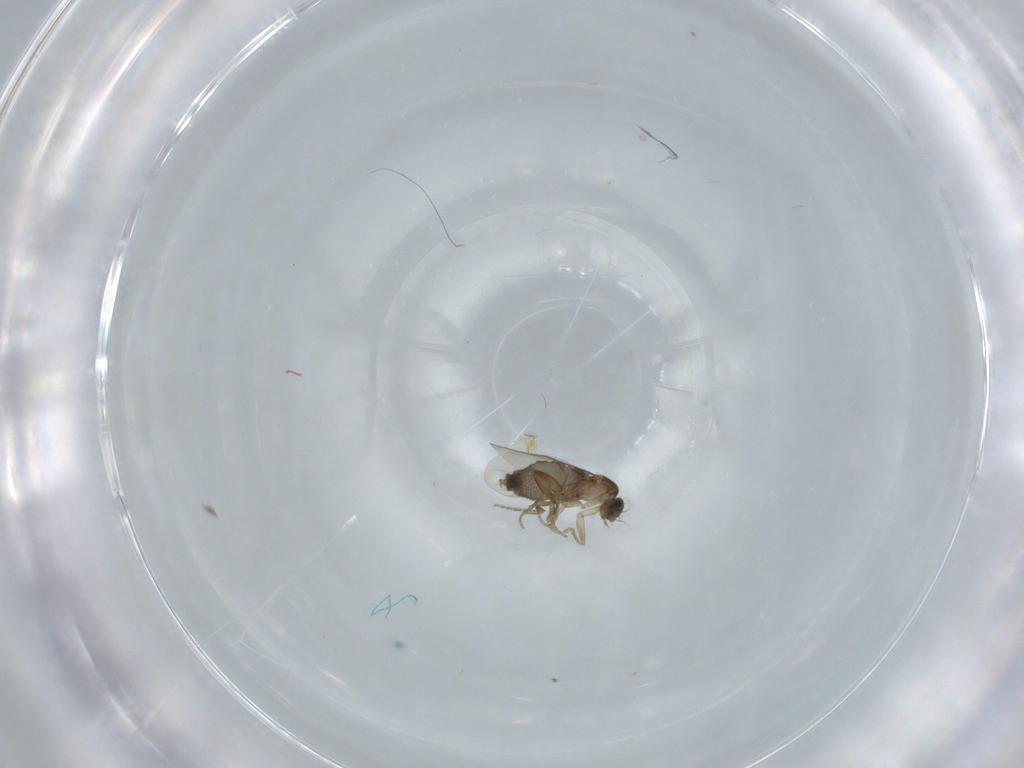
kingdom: Animalia
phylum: Arthropoda
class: Insecta
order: Diptera
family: Phoridae
